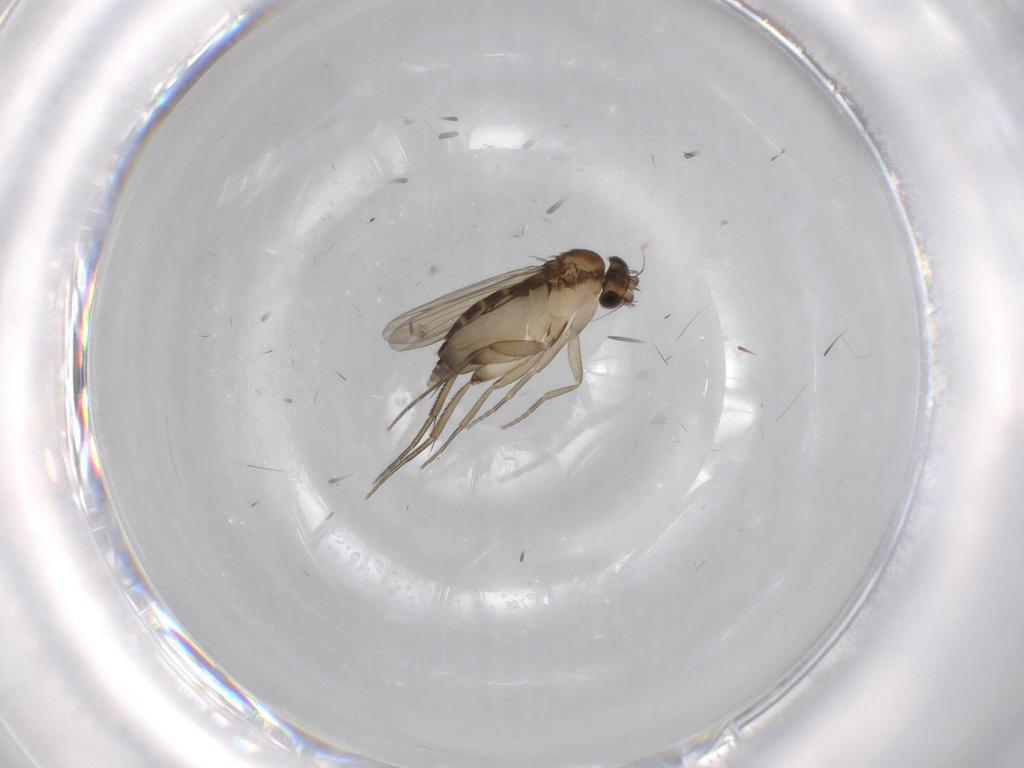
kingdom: Animalia
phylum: Arthropoda
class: Insecta
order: Diptera
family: Phoridae
